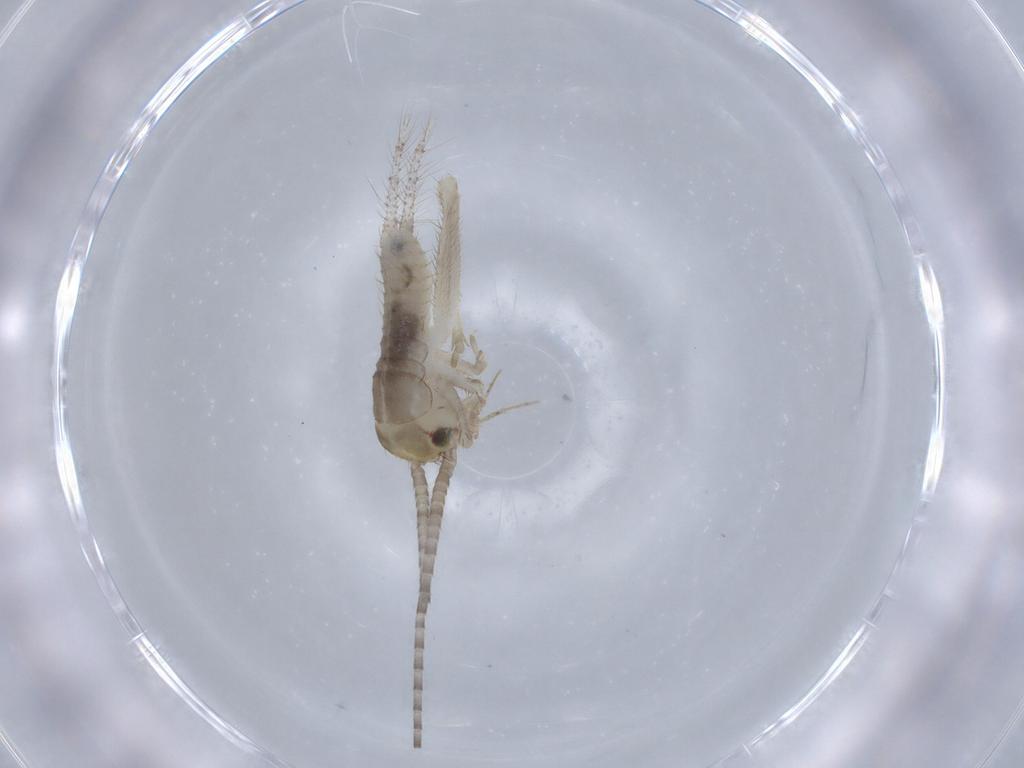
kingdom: Animalia
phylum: Arthropoda
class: Insecta
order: Orthoptera
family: Gryllidae
